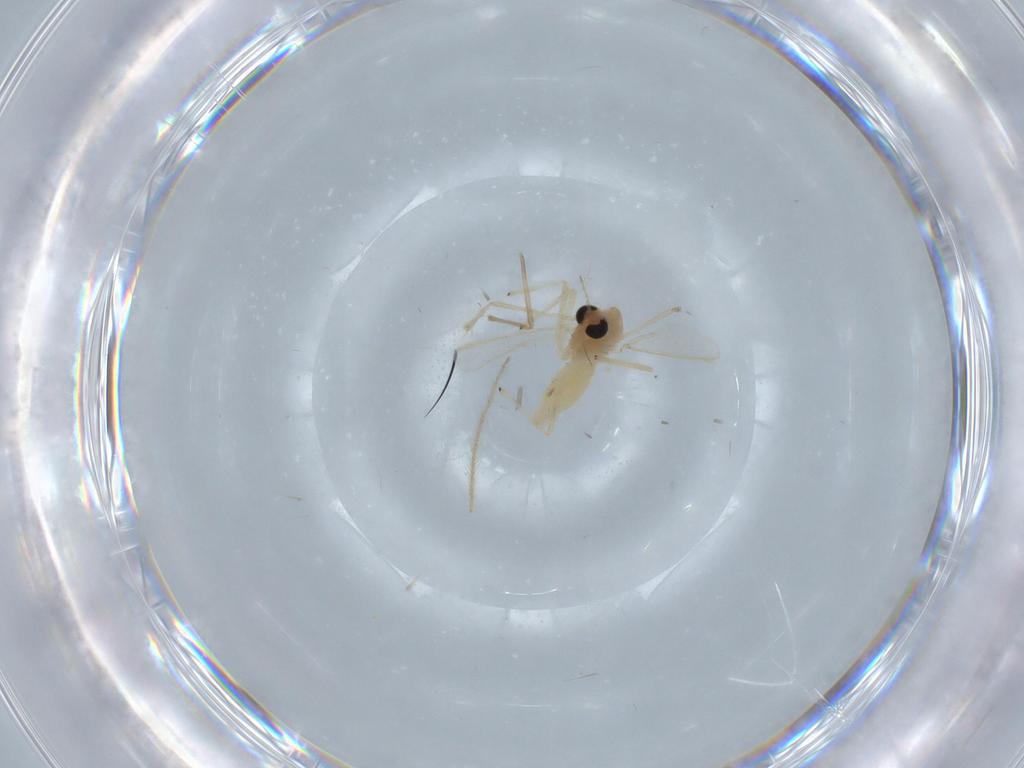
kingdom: Animalia
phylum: Arthropoda
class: Insecta
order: Diptera
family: Chironomidae
